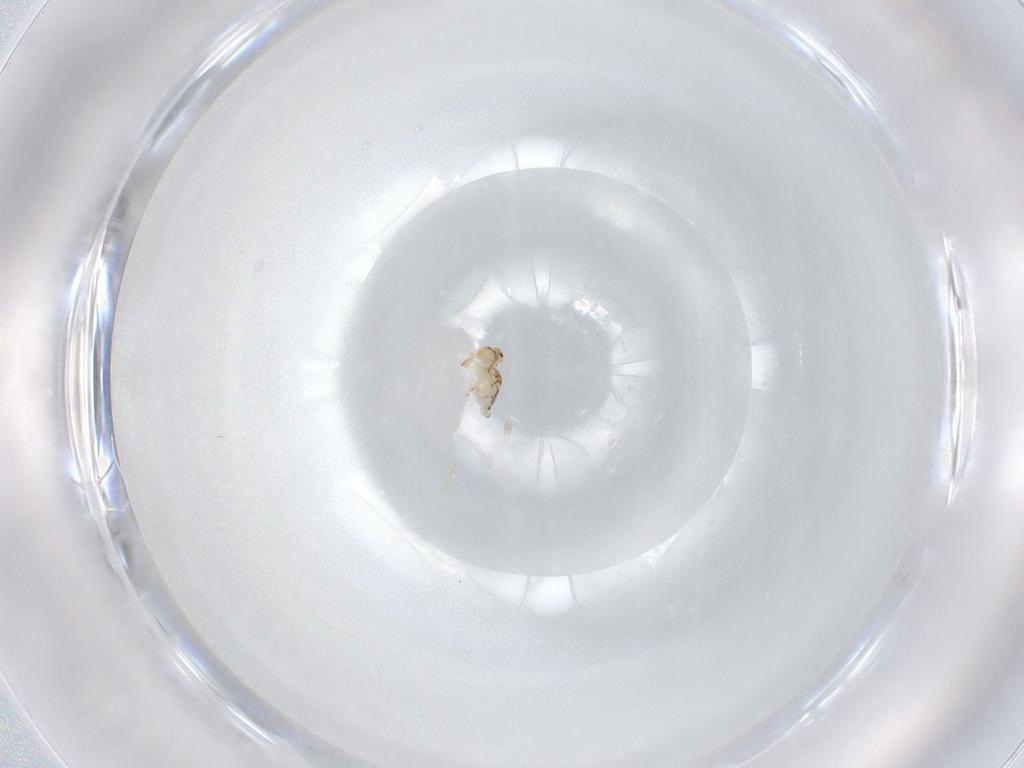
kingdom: Animalia
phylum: Arthropoda
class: Collembola
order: Symphypleona
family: Bourletiellidae
